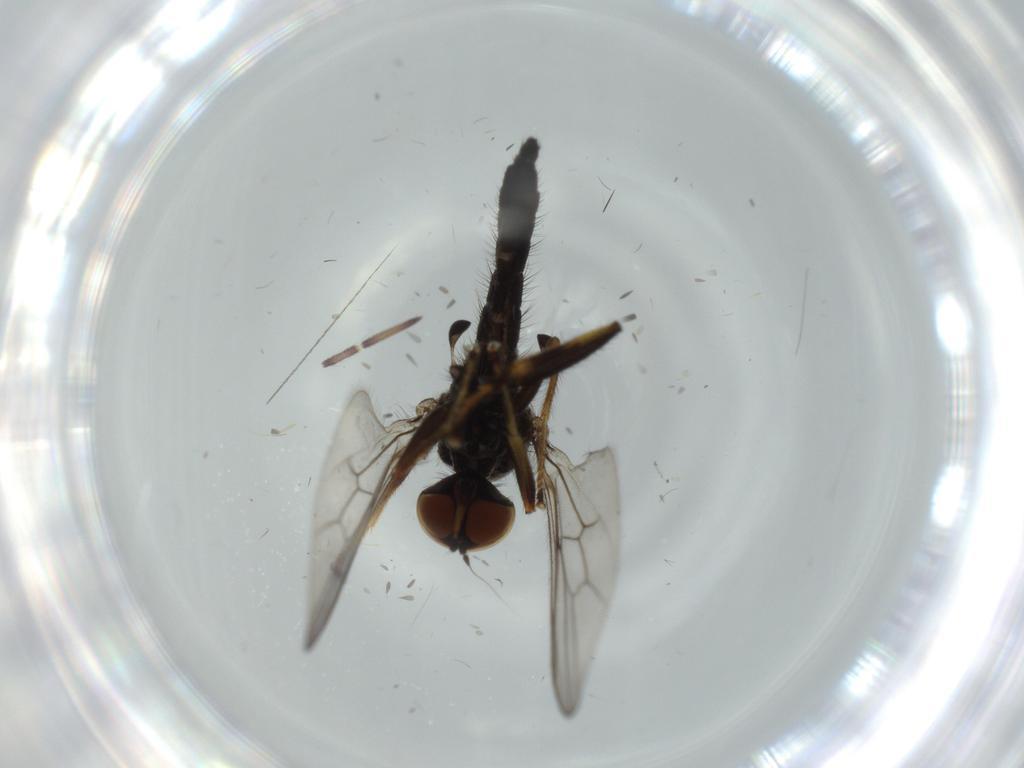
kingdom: Animalia
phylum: Arthropoda
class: Insecta
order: Diptera
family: Hybotidae
